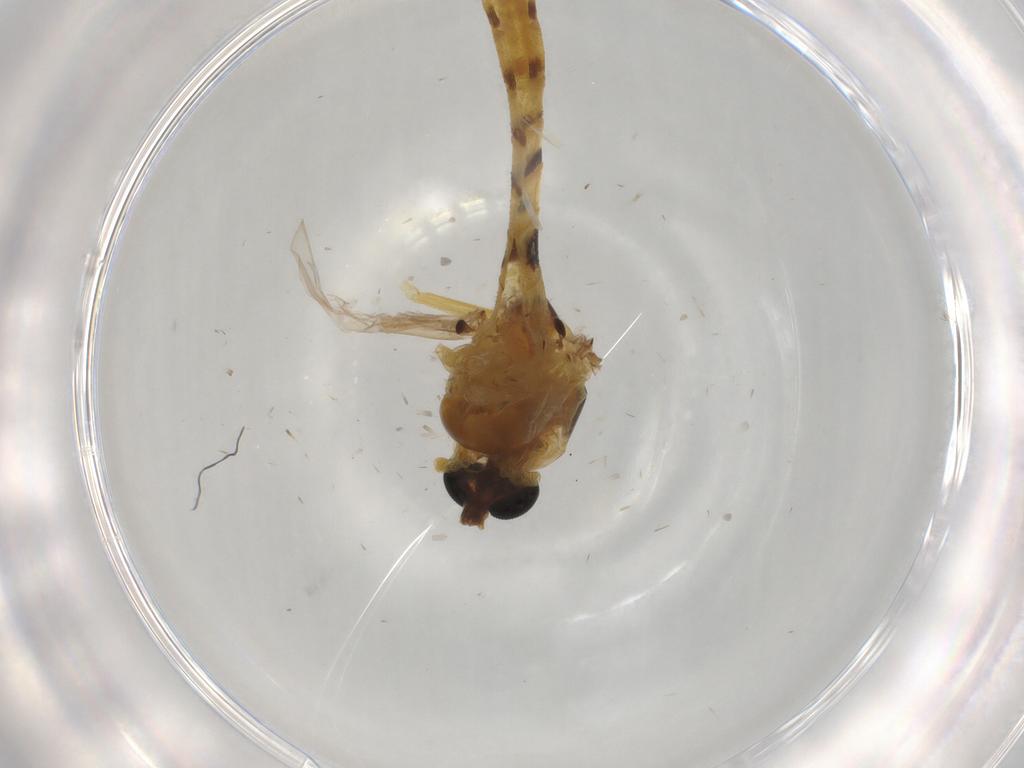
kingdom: Animalia
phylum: Arthropoda
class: Insecta
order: Diptera
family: Chironomidae
